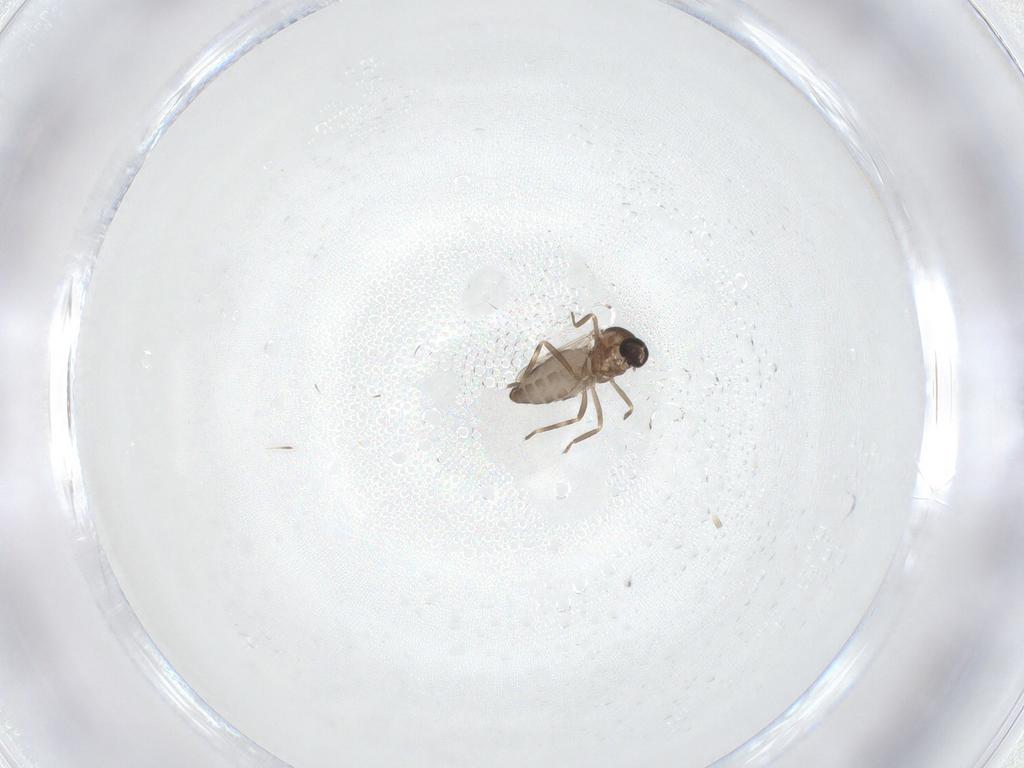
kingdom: Animalia
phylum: Arthropoda
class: Insecta
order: Diptera
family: Ceratopogonidae
